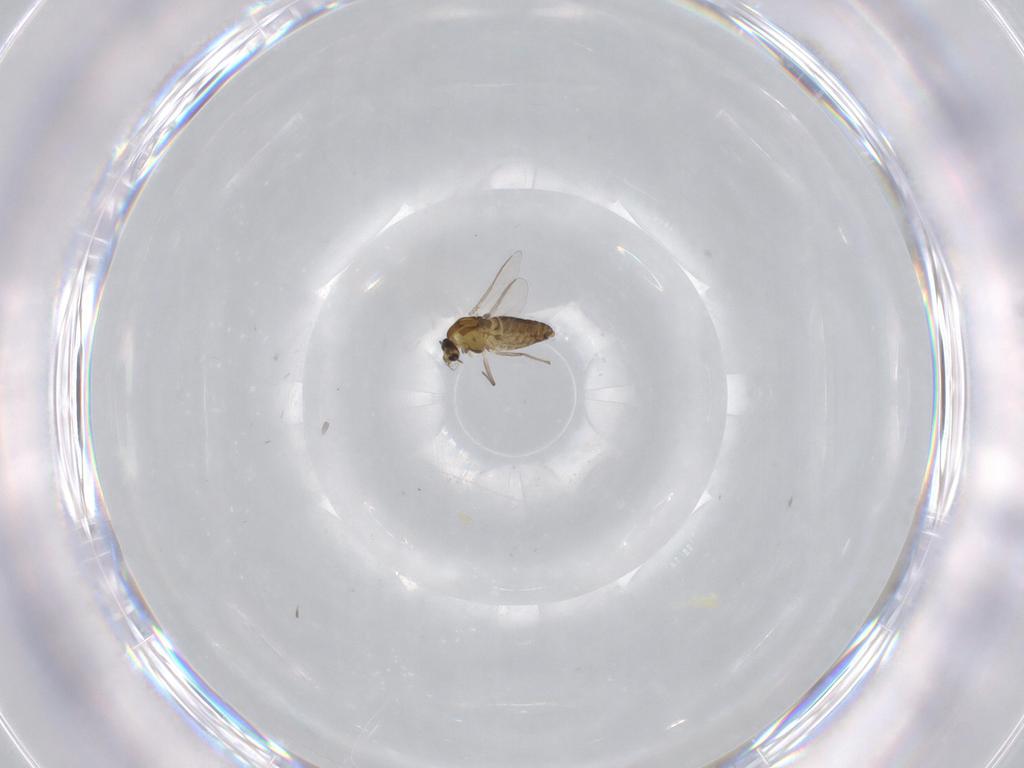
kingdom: Animalia
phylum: Arthropoda
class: Insecta
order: Diptera
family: Chironomidae
